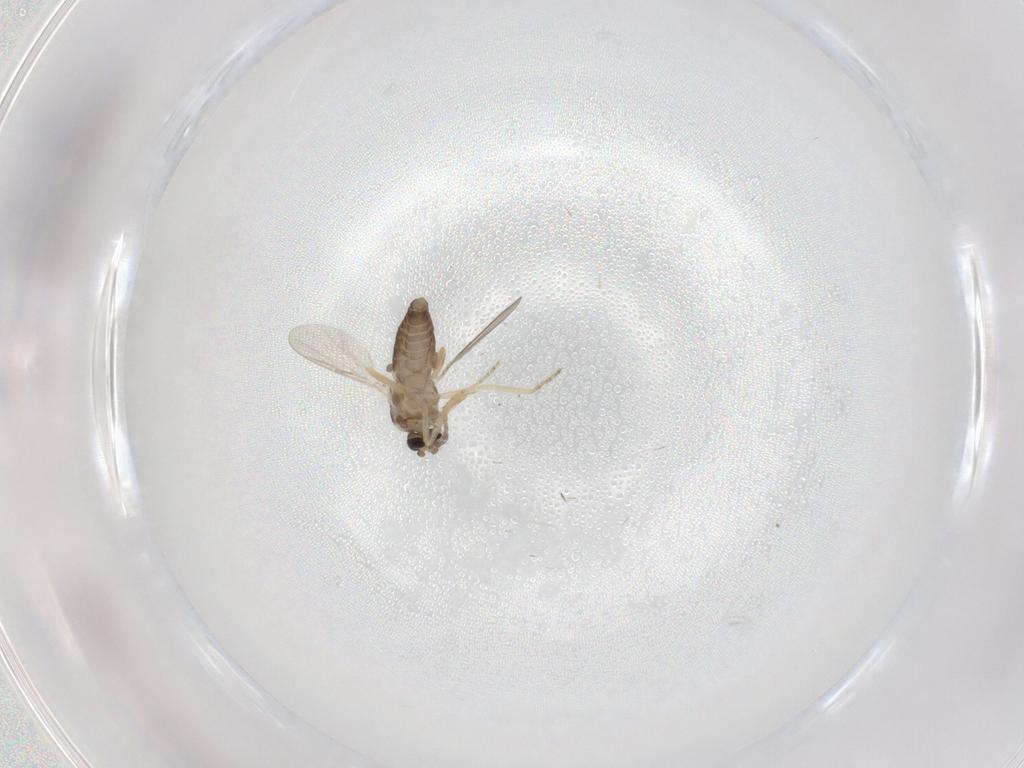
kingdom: Animalia
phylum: Arthropoda
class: Insecta
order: Diptera
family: Ceratopogonidae
